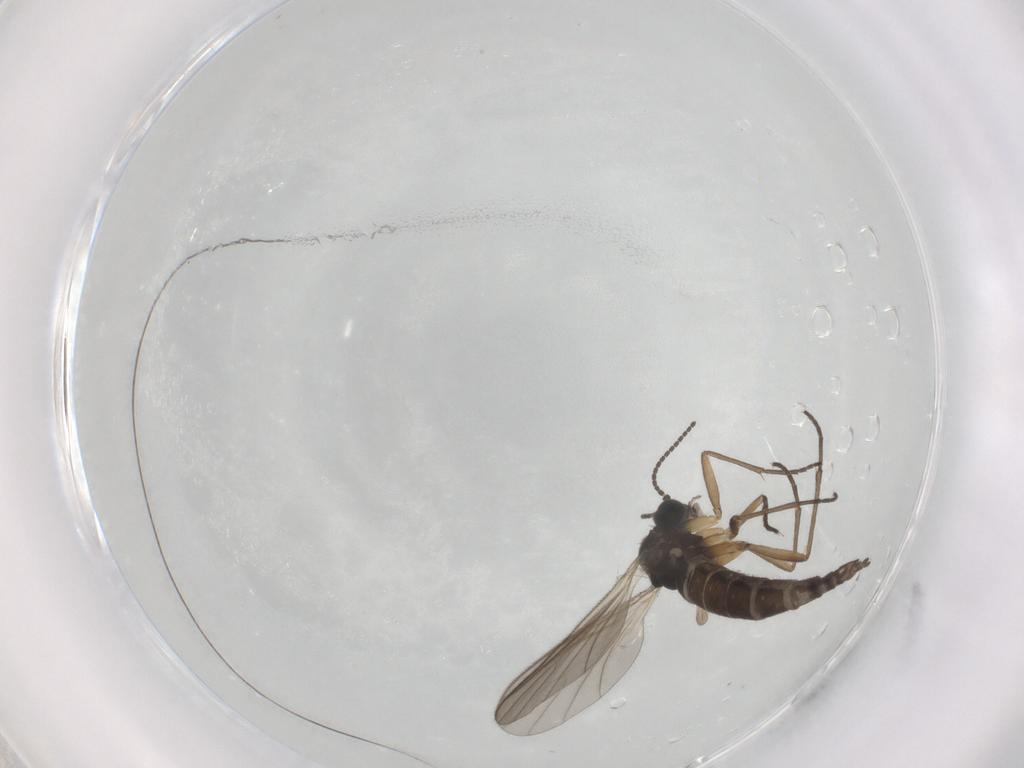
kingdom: Animalia
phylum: Arthropoda
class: Insecta
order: Diptera
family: Sciaridae
